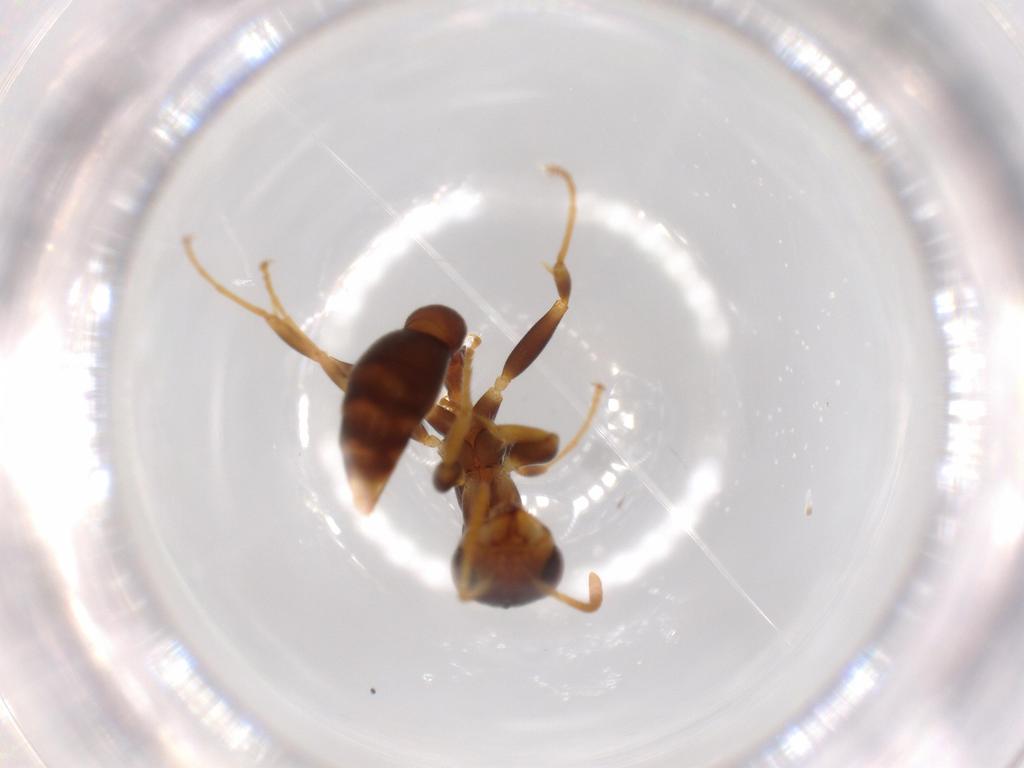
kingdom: Animalia
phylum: Arthropoda
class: Insecta
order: Hymenoptera
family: Formicidae
